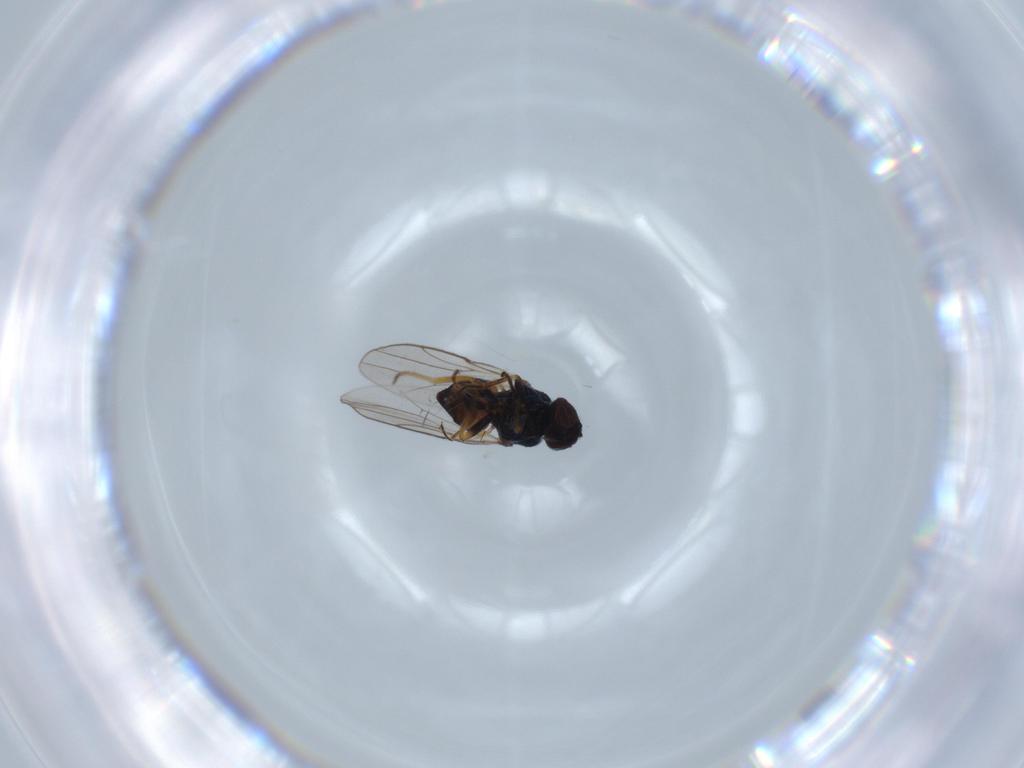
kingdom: Animalia
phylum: Arthropoda
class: Insecta
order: Diptera
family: Chloropidae
